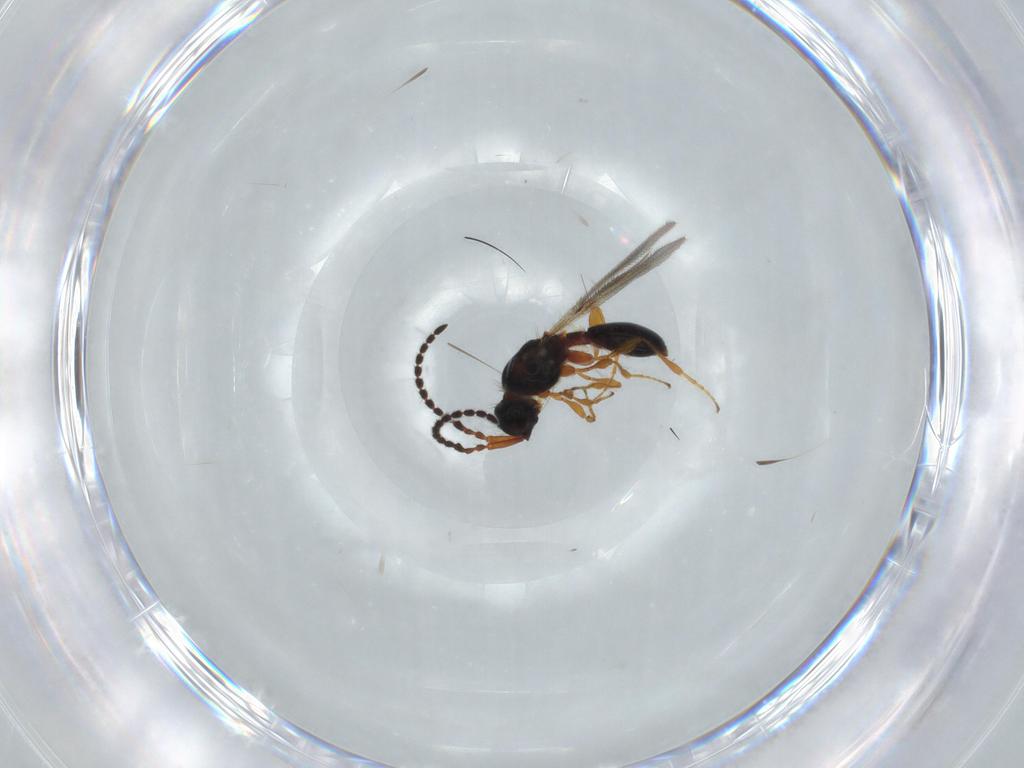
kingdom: Animalia
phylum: Arthropoda
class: Insecta
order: Hymenoptera
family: Diapriidae
